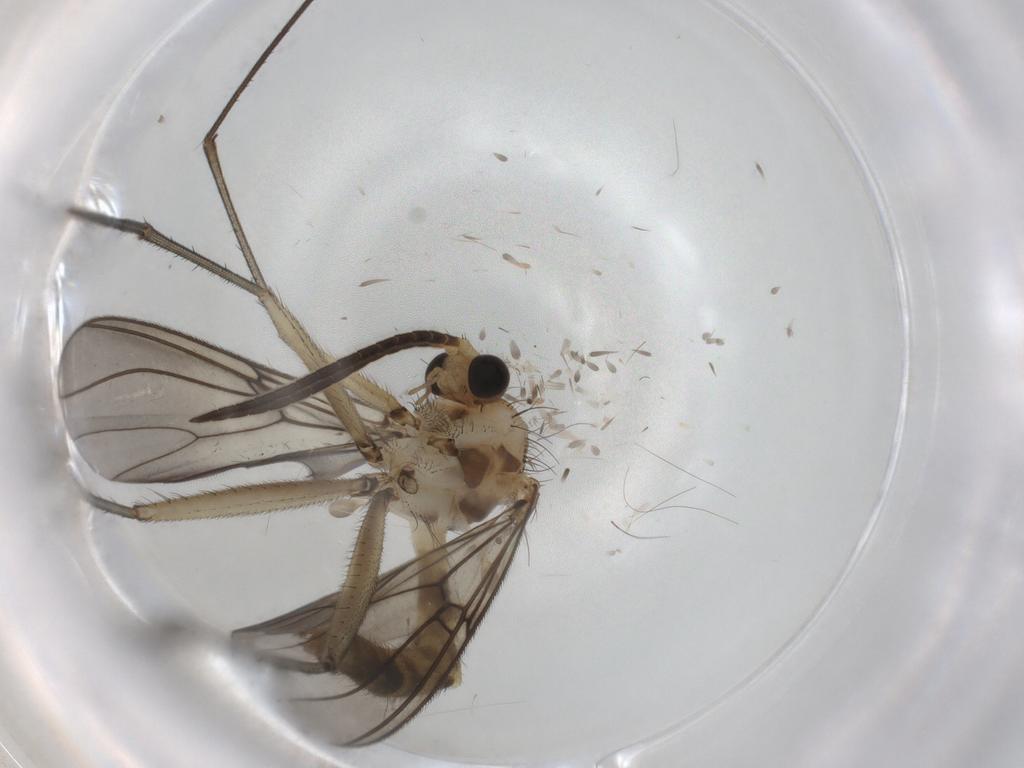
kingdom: Animalia
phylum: Arthropoda
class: Insecta
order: Diptera
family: Mycetophilidae
